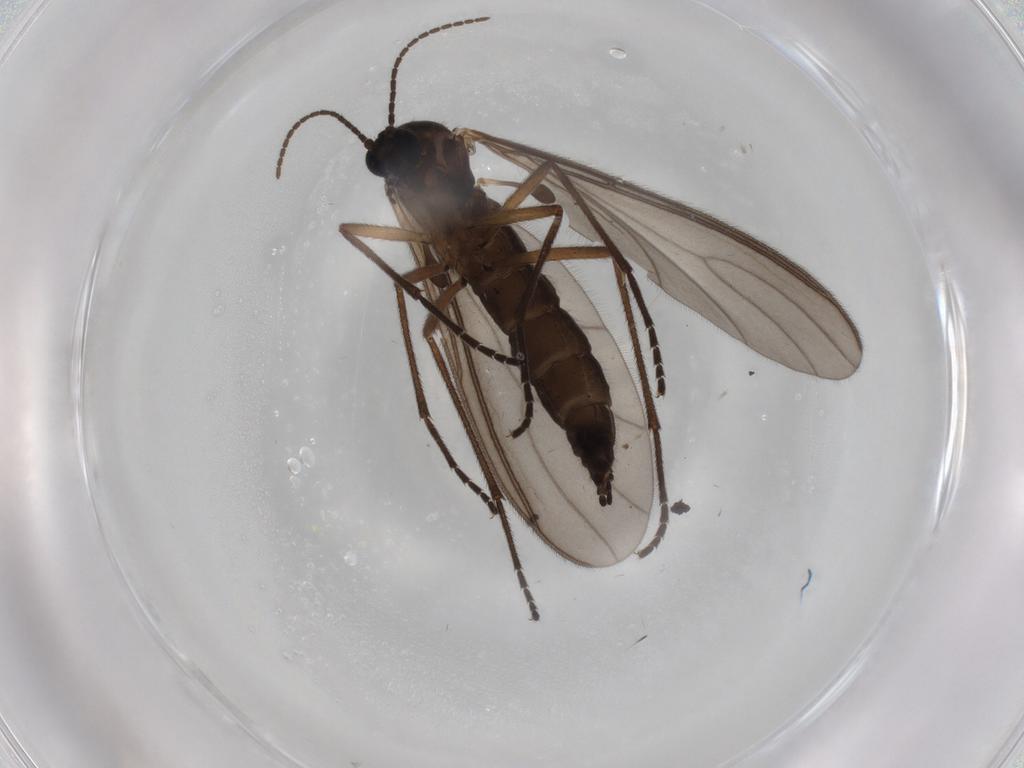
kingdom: Animalia
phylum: Arthropoda
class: Insecta
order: Diptera
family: Sciaridae
